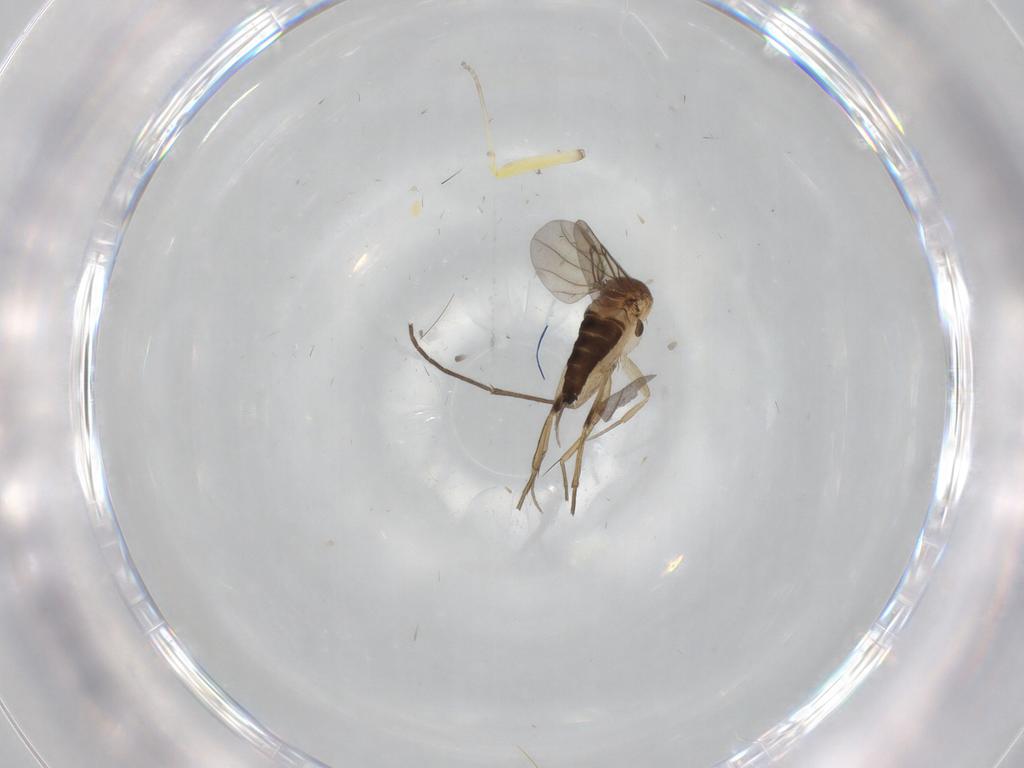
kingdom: Animalia
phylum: Arthropoda
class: Insecta
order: Diptera
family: Phoridae
